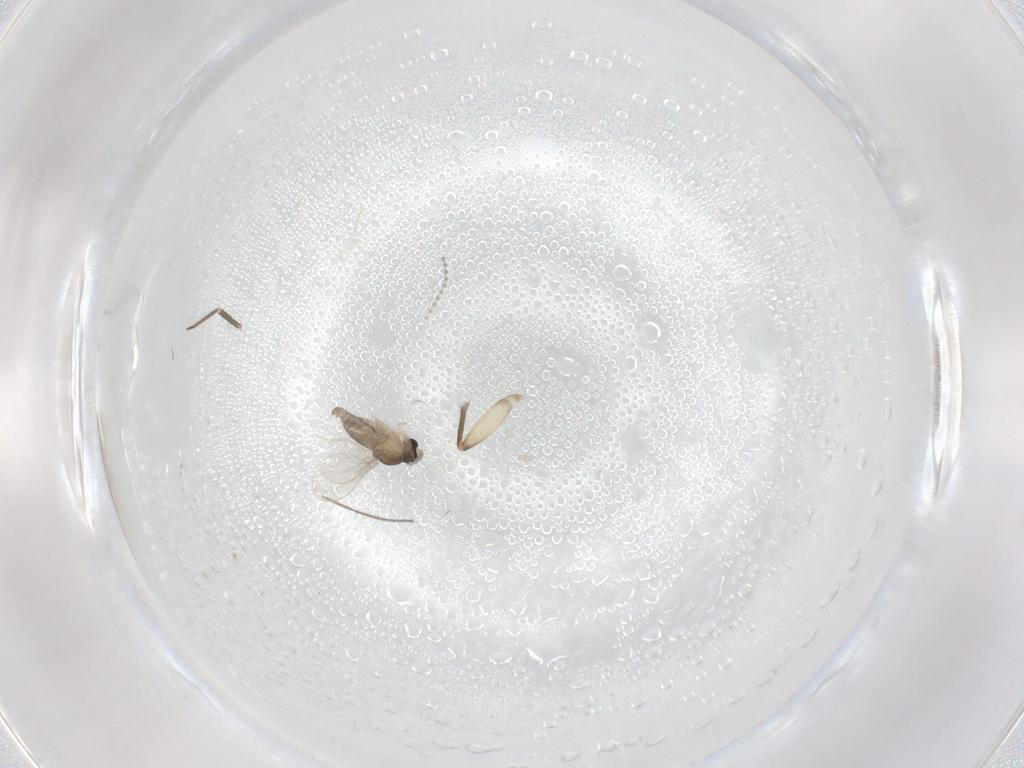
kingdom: Animalia
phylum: Arthropoda
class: Insecta
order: Diptera
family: Cecidomyiidae
